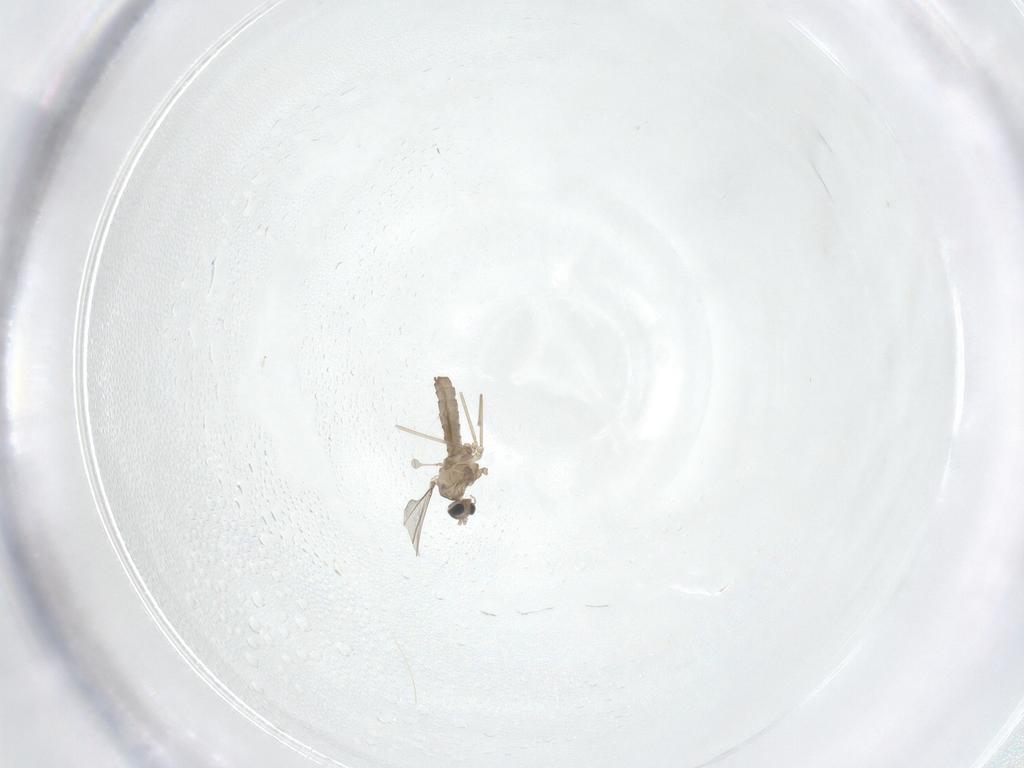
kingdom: Animalia
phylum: Arthropoda
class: Insecta
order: Diptera
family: Cecidomyiidae
